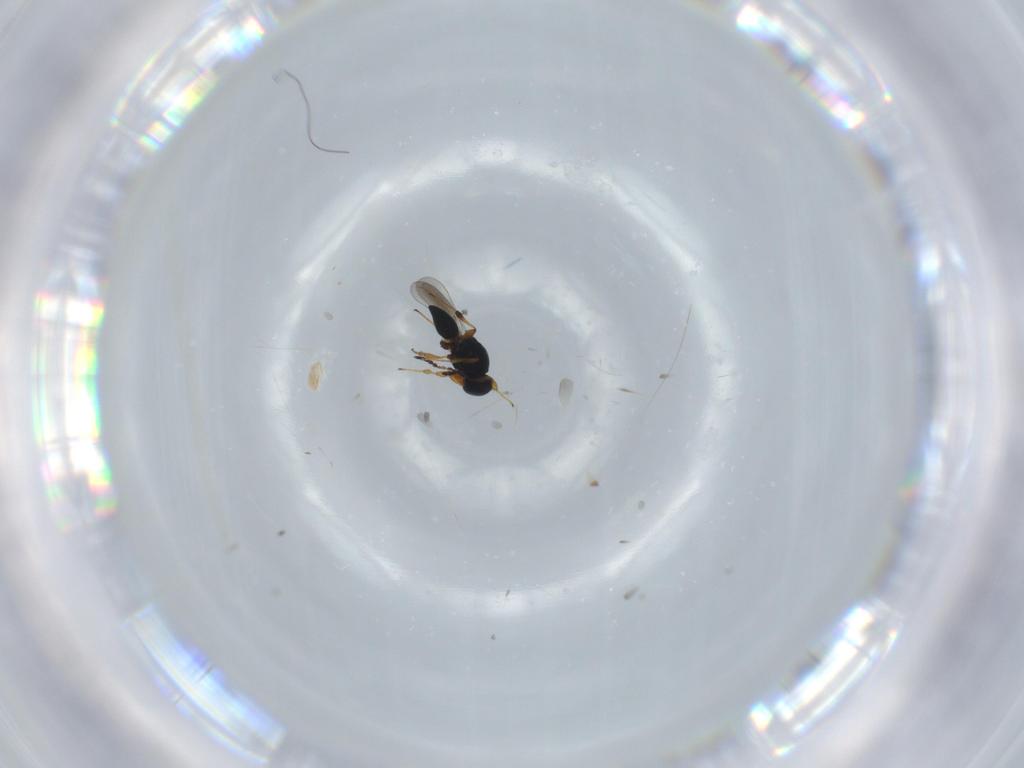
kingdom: Animalia
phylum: Arthropoda
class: Insecta
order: Hymenoptera
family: Platygastridae
